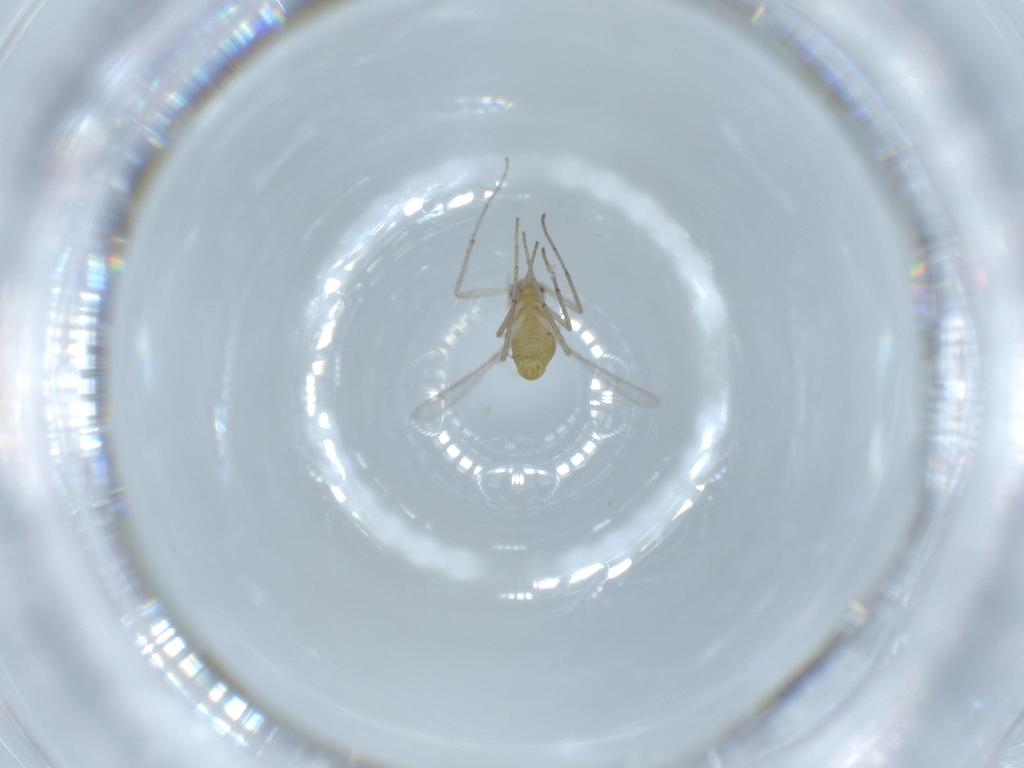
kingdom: Animalia
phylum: Arthropoda
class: Insecta
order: Diptera
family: Chironomidae
